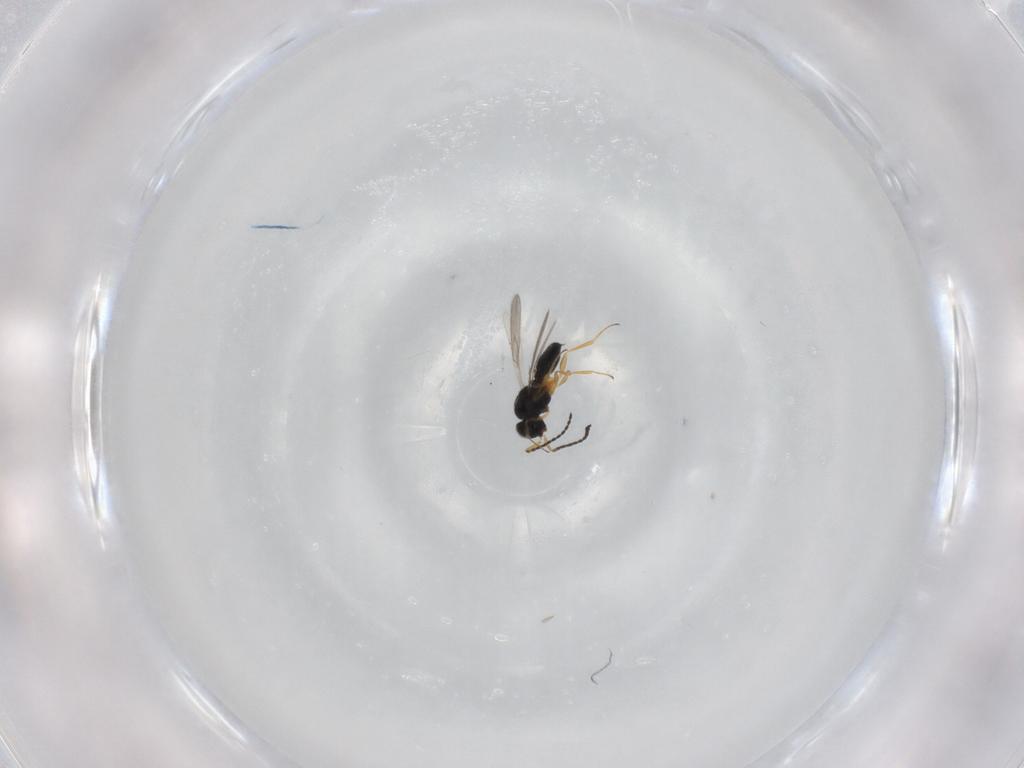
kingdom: Animalia
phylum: Arthropoda
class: Insecta
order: Hymenoptera
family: Scelionidae
